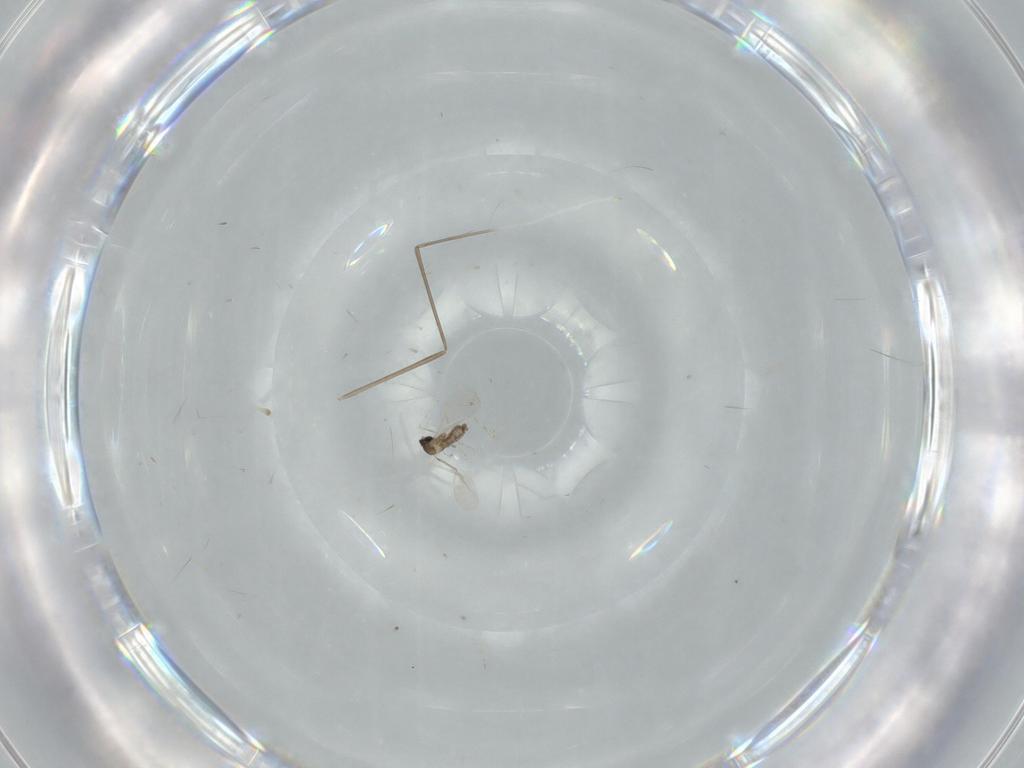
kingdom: Animalia
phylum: Arthropoda
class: Insecta
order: Diptera
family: Cecidomyiidae
